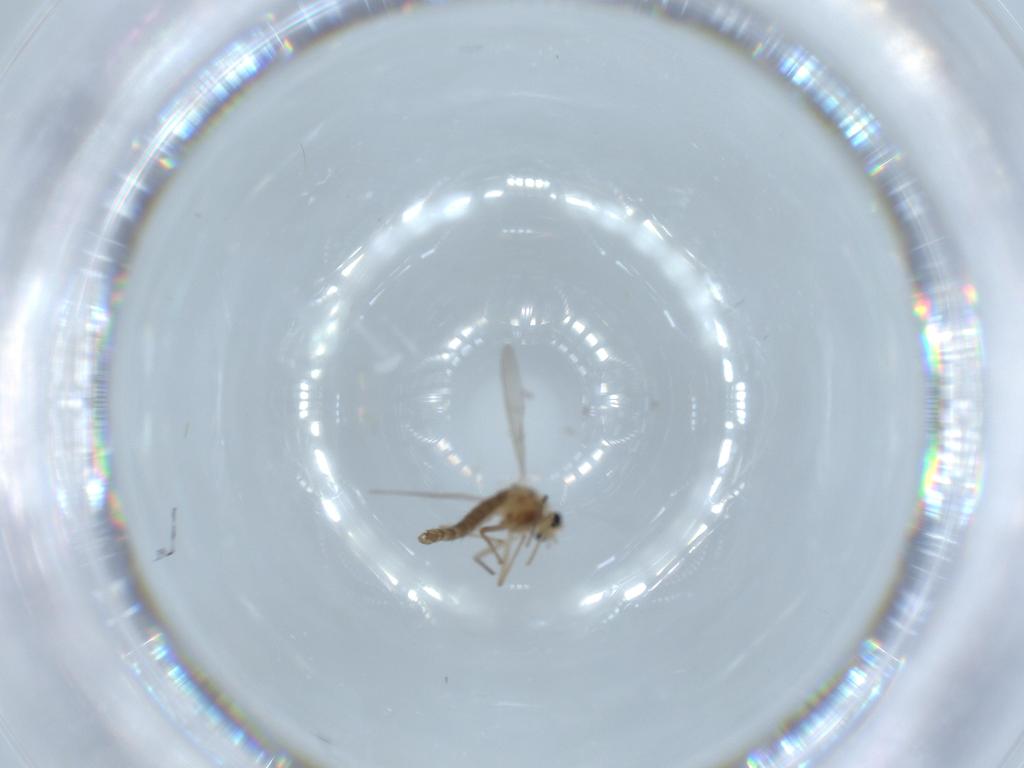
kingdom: Animalia
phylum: Arthropoda
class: Insecta
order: Diptera
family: Chironomidae
